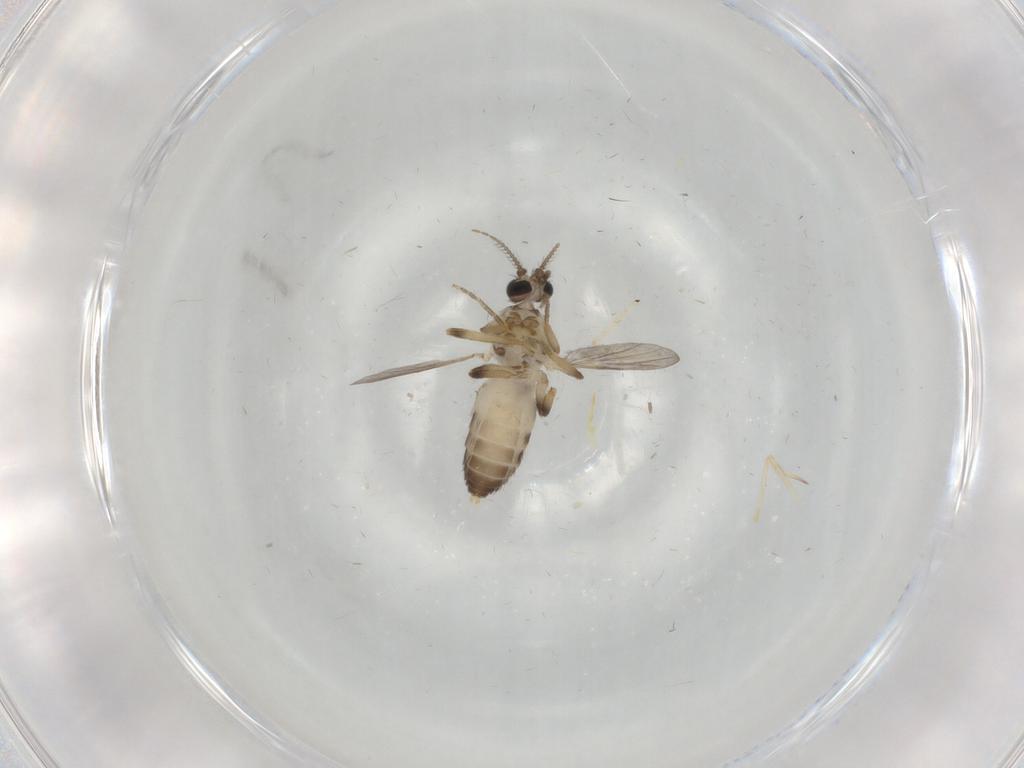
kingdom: Animalia
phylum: Arthropoda
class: Insecta
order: Diptera
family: Ceratopogonidae
